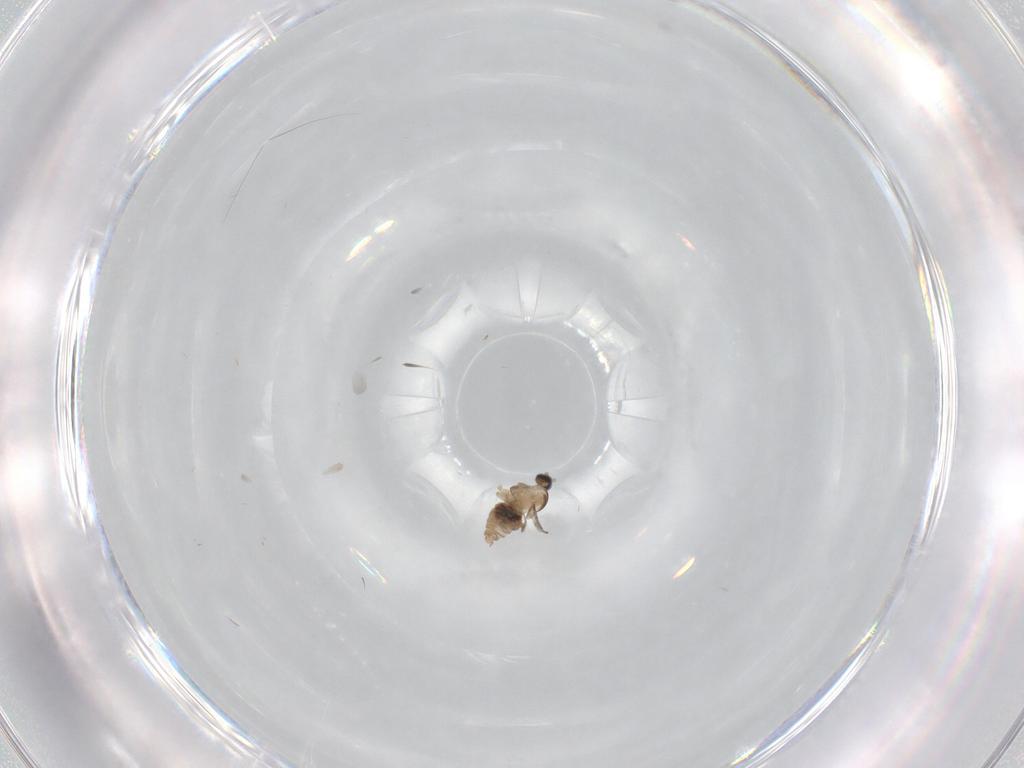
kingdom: Animalia
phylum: Arthropoda
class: Insecta
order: Diptera
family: Cecidomyiidae
